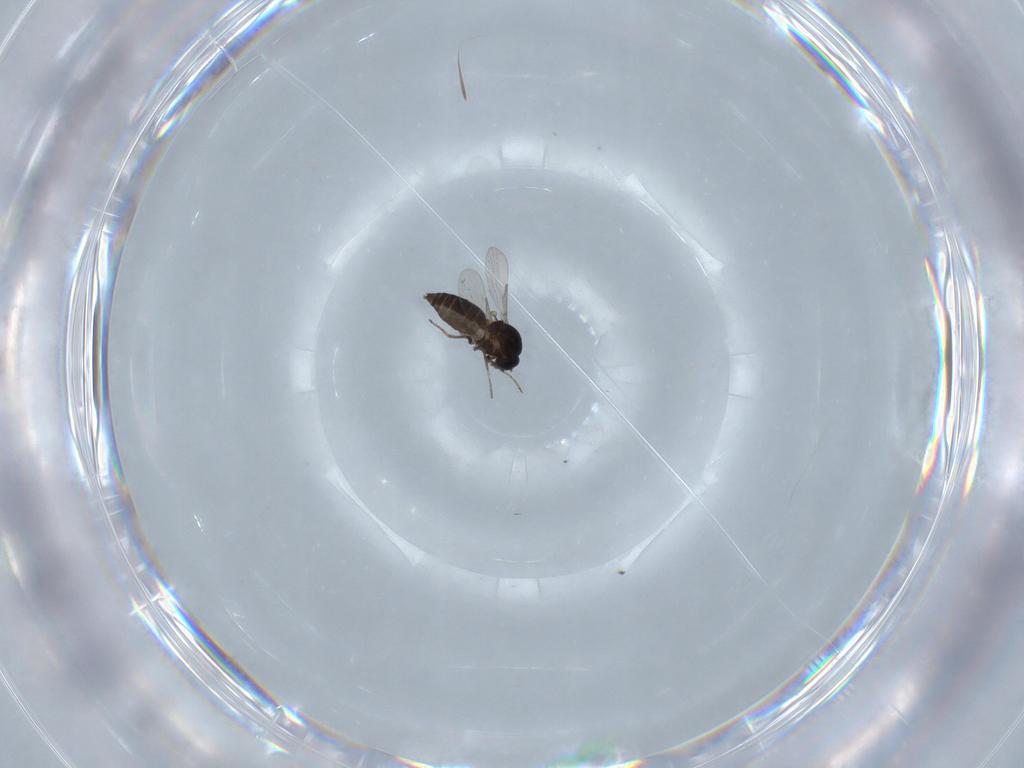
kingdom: Animalia
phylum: Arthropoda
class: Insecta
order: Diptera
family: Ceratopogonidae
